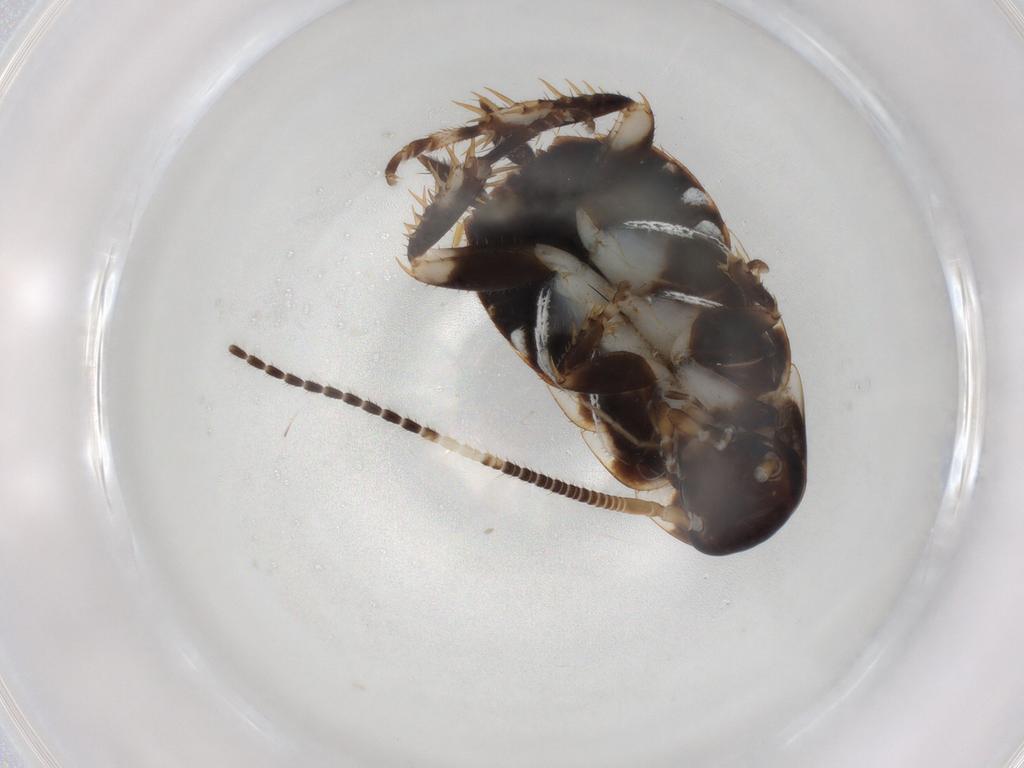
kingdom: Animalia
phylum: Arthropoda
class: Insecta
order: Blattodea
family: Blaberidae
